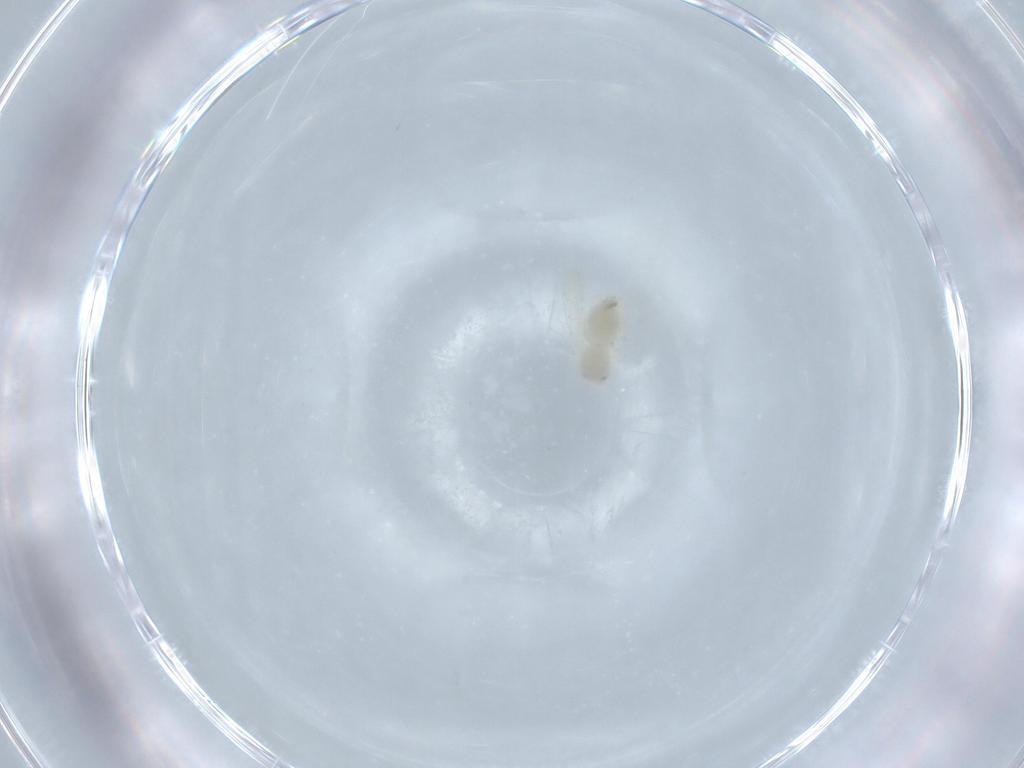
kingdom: Animalia
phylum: Arthropoda
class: Insecta
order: Hemiptera
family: Aleyrodidae
